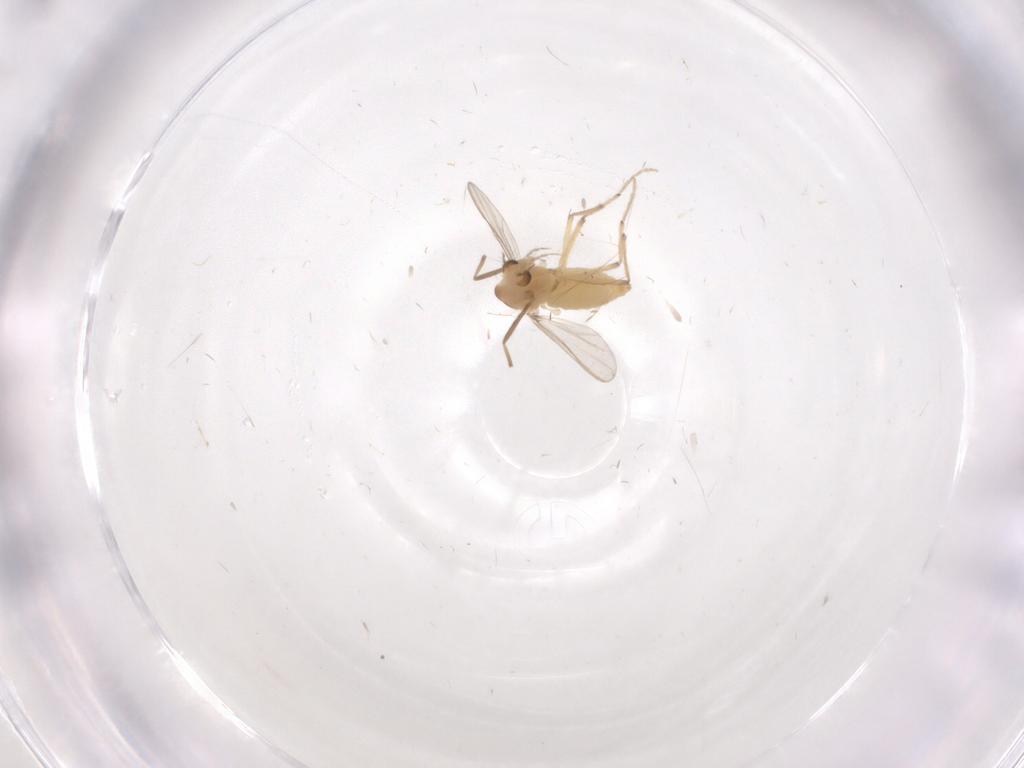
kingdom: Animalia
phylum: Arthropoda
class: Insecta
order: Diptera
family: Chironomidae
